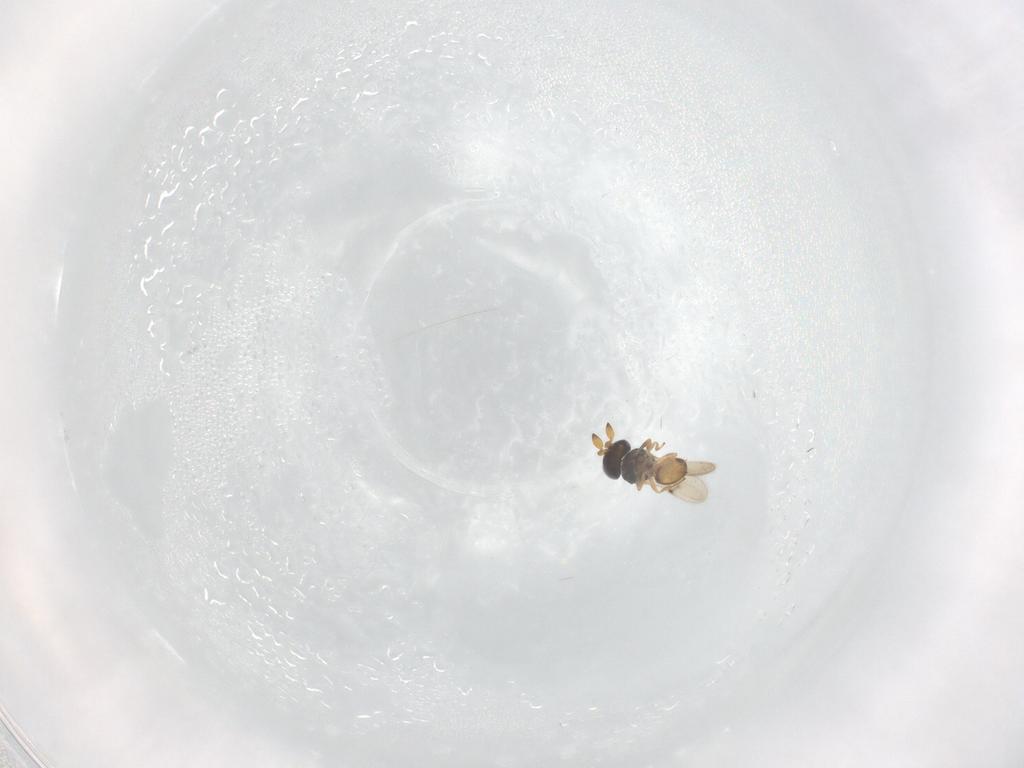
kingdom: Animalia
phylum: Arthropoda
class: Insecta
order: Hymenoptera
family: Scelionidae
